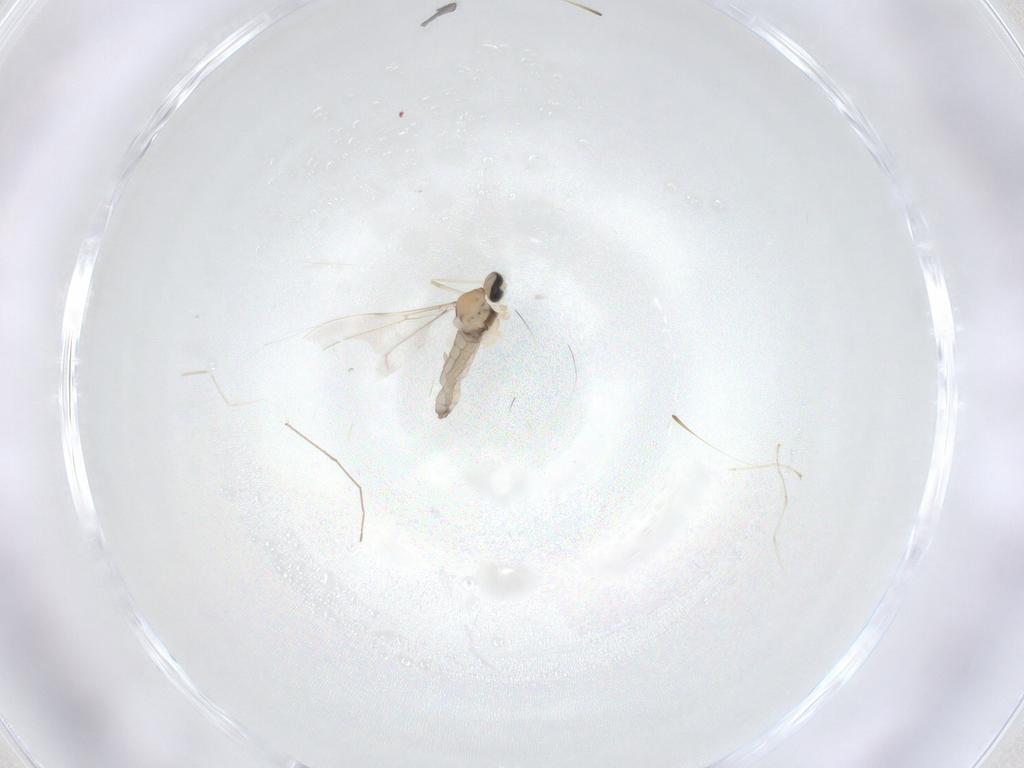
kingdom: Animalia
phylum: Arthropoda
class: Insecta
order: Diptera
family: Cecidomyiidae
